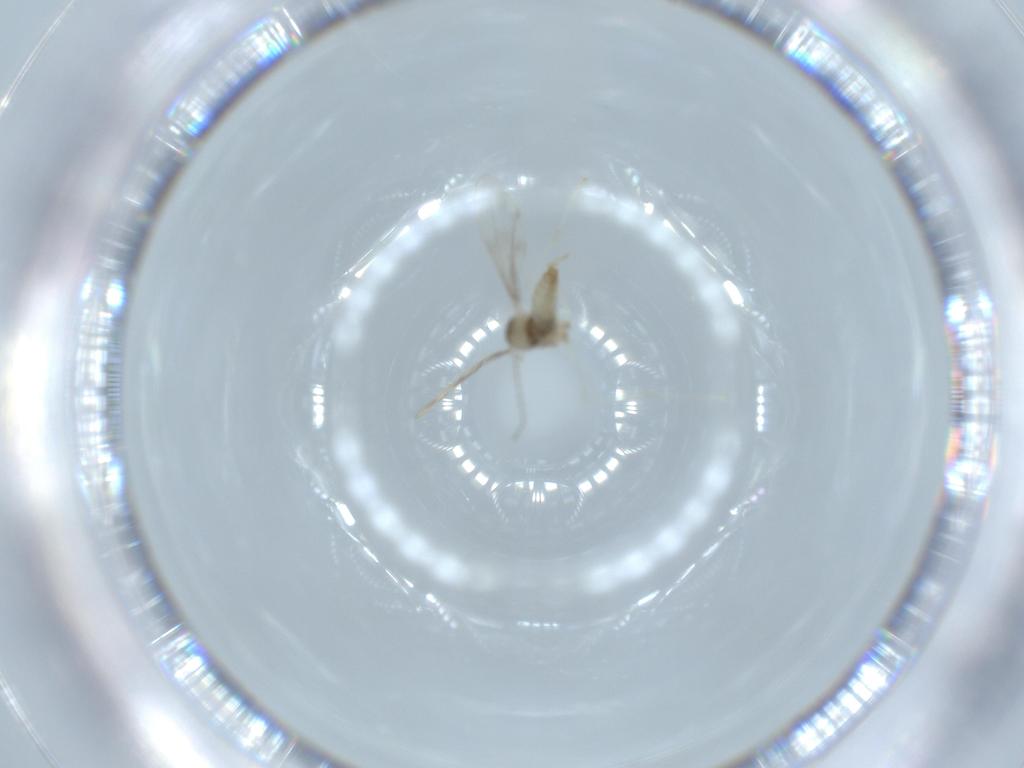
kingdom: Animalia
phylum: Arthropoda
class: Insecta
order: Diptera
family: Cecidomyiidae
